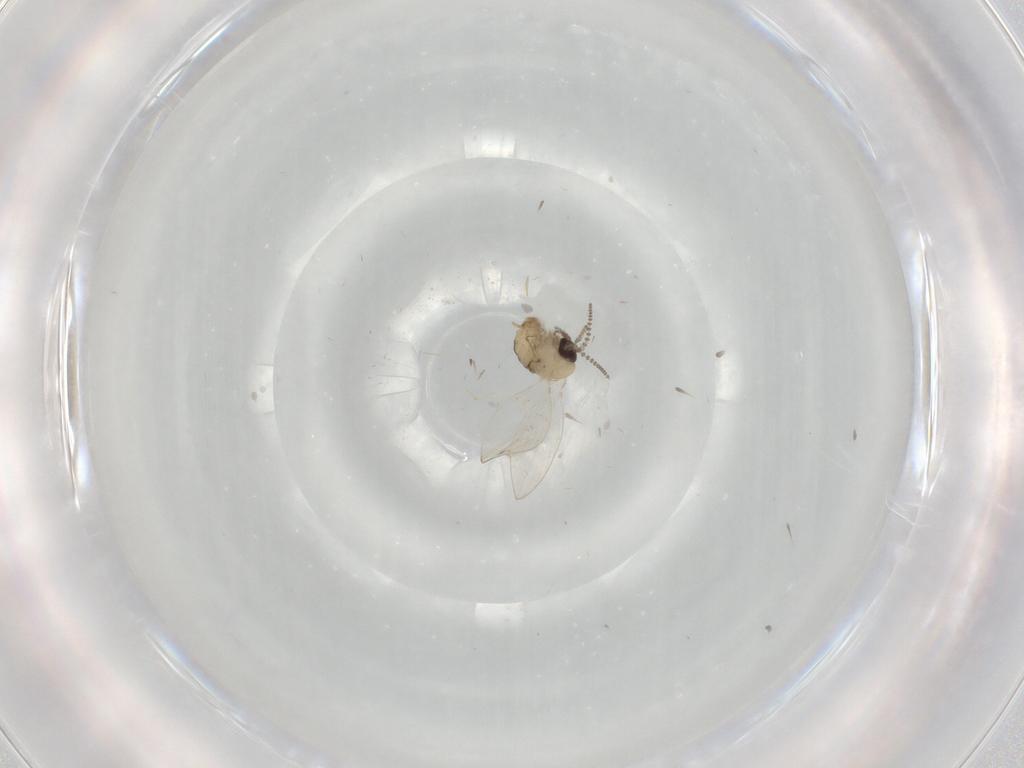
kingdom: Animalia
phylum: Arthropoda
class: Insecta
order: Diptera
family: Psychodidae
